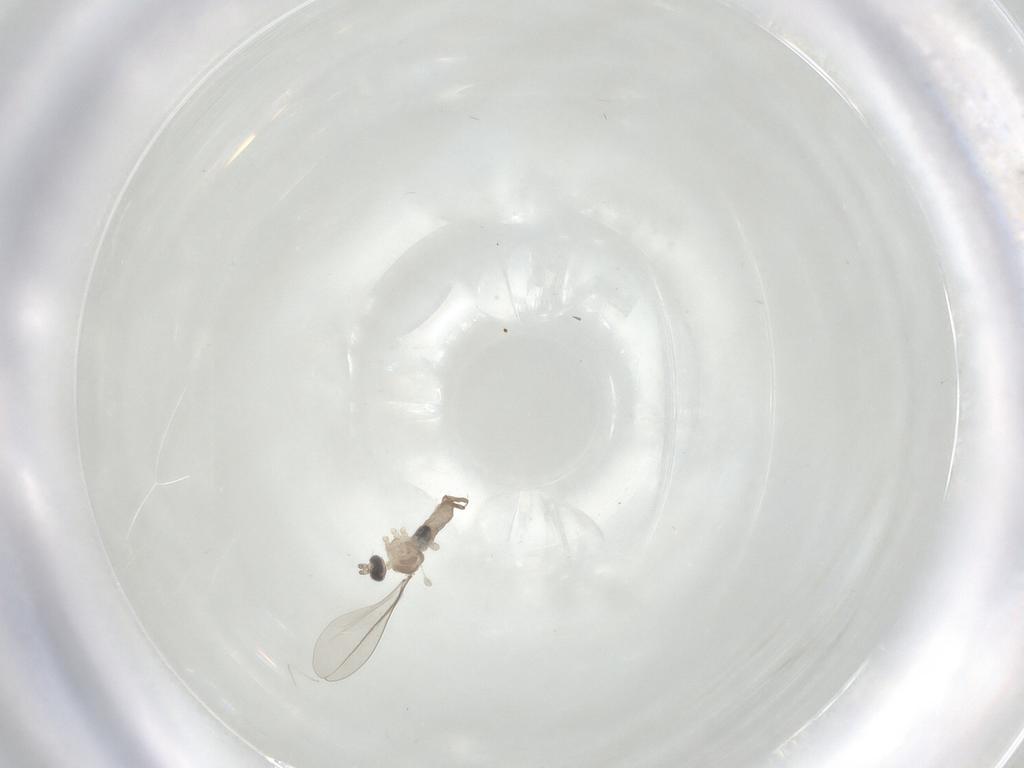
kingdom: Animalia
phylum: Arthropoda
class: Insecta
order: Diptera
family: Cecidomyiidae
